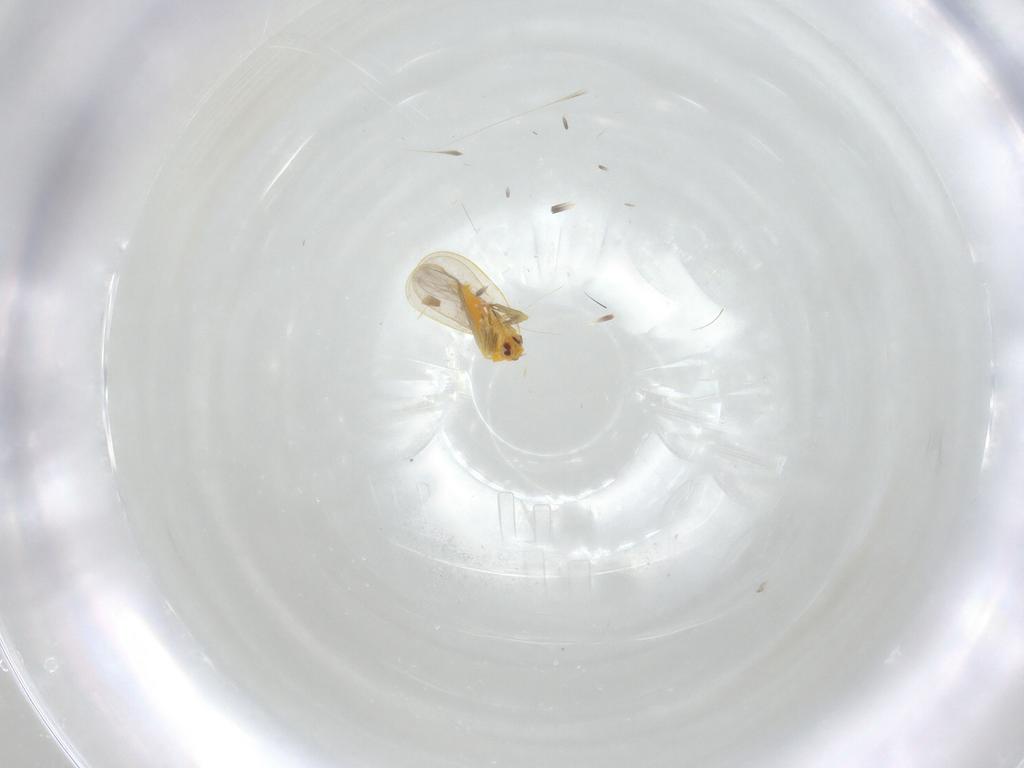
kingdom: Animalia
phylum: Arthropoda
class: Insecta
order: Hemiptera
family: Aleyrodidae
